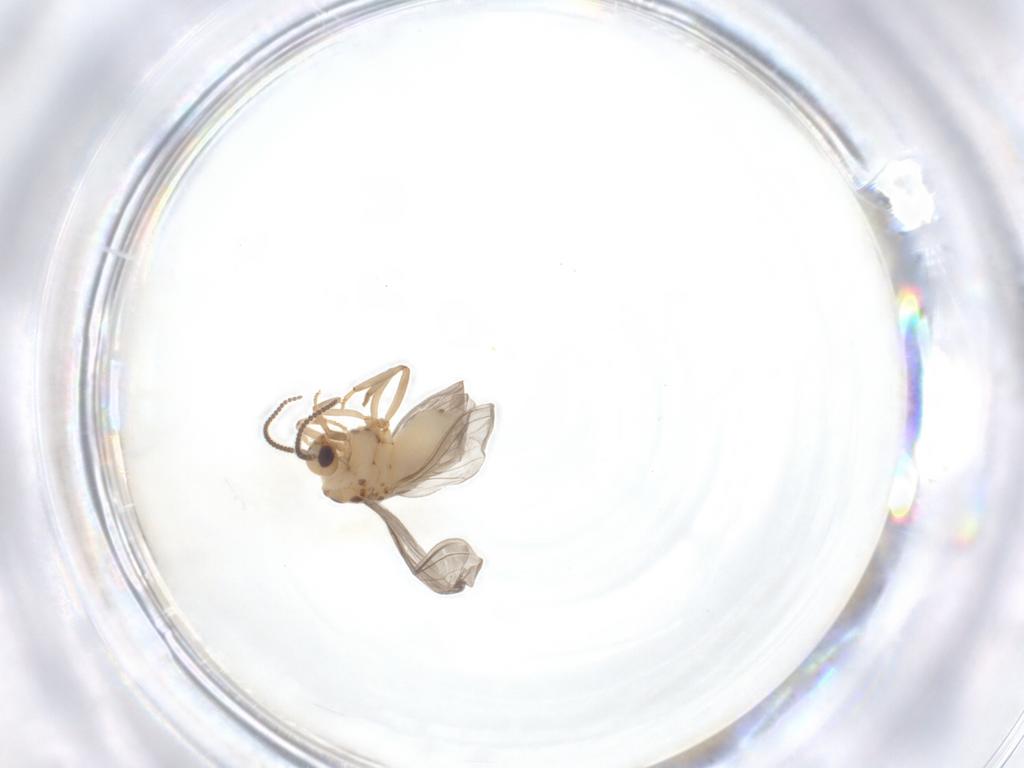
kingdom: Animalia
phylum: Arthropoda
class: Insecta
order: Neuroptera
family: Coniopterygidae
